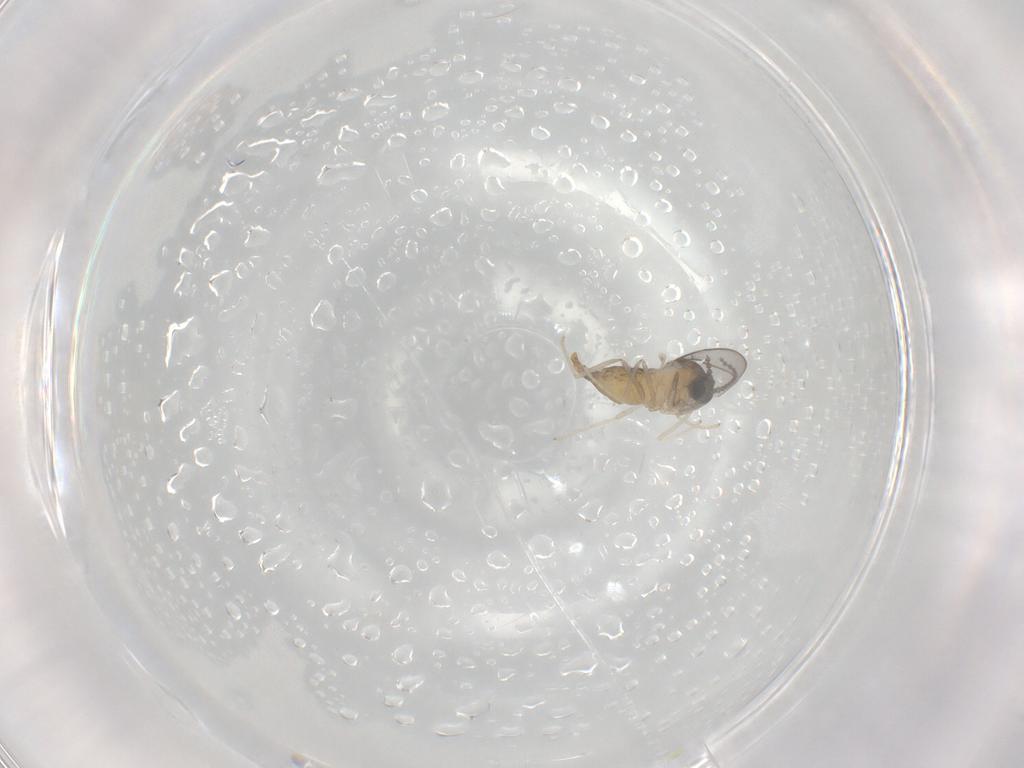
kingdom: Animalia
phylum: Arthropoda
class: Insecta
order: Diptera
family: Cecidomyiidae
